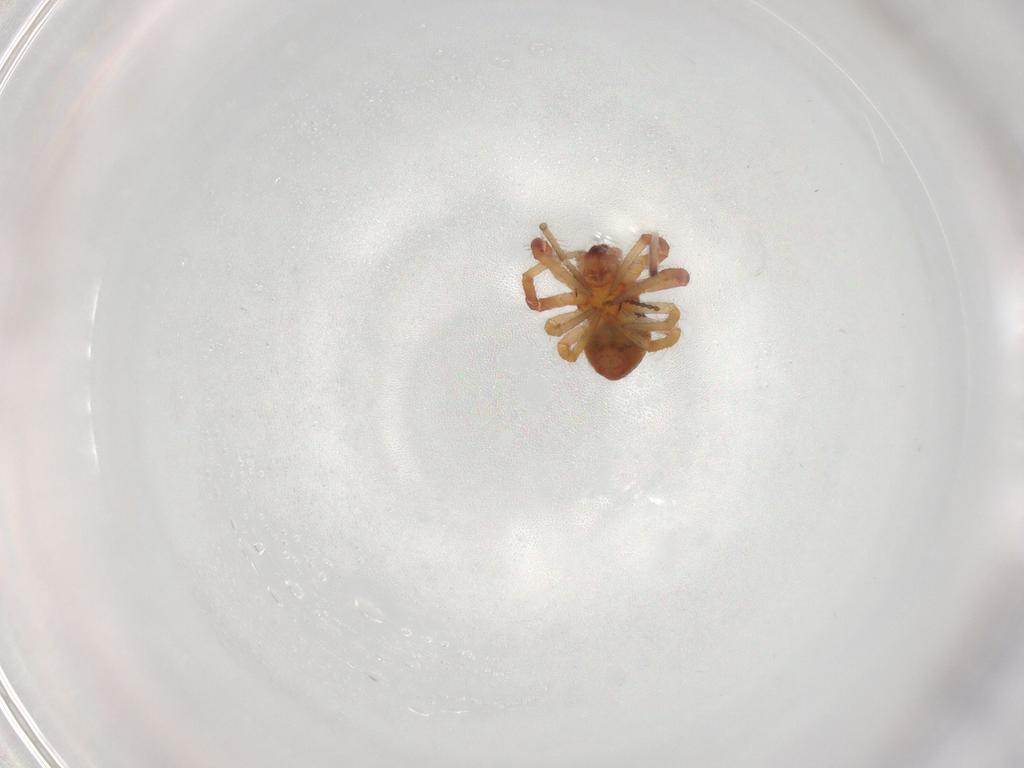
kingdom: Animalia
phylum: Arthropoda
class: Arachnida
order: Araneae
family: Araneidae
